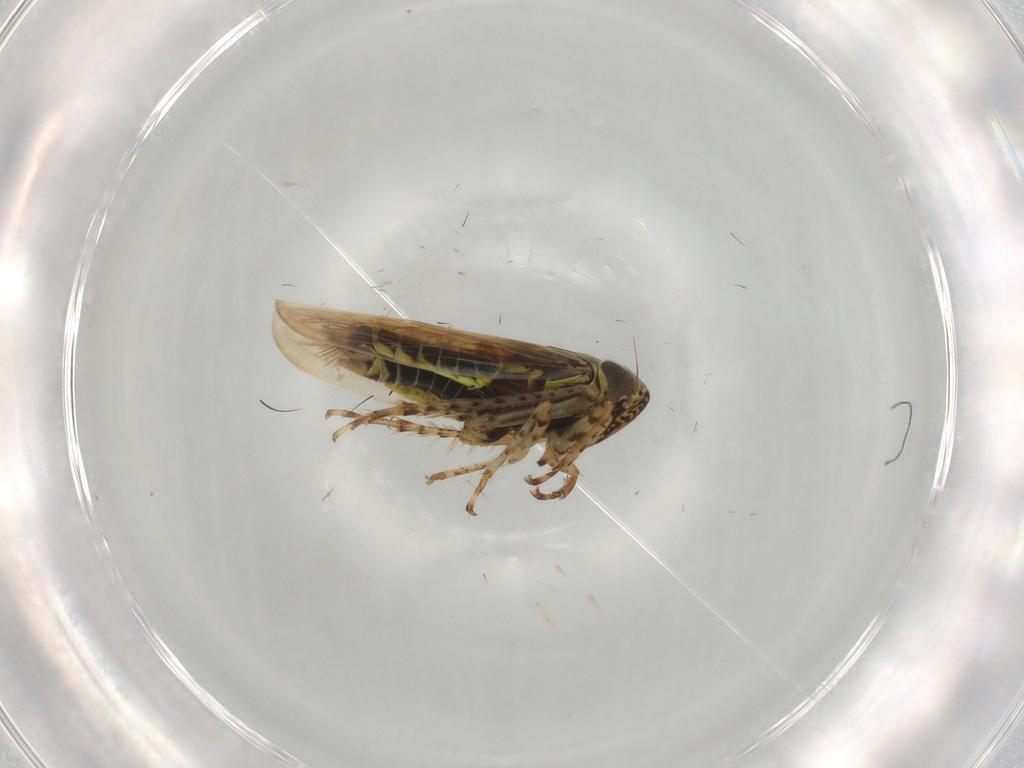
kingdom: Animalia
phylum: Arthropoda
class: Insecta
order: Hemiptera
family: Cicadellidae
